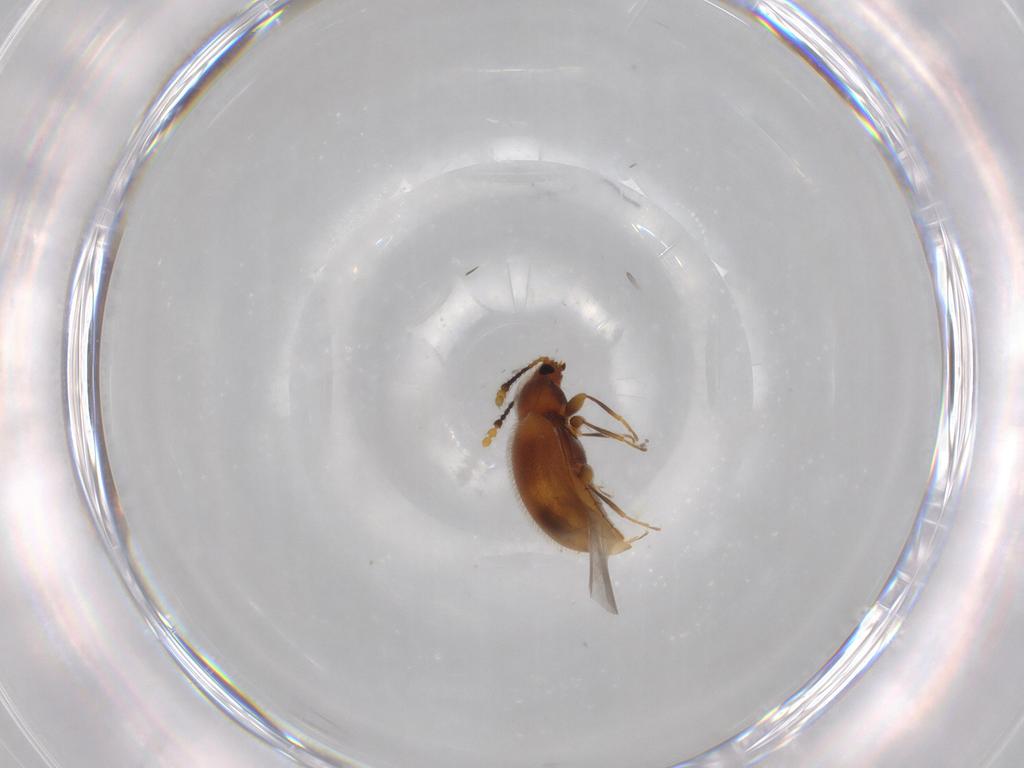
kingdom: Animalia
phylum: Arthropoda
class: Insecta
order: Coleoptera
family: Erotylidae
